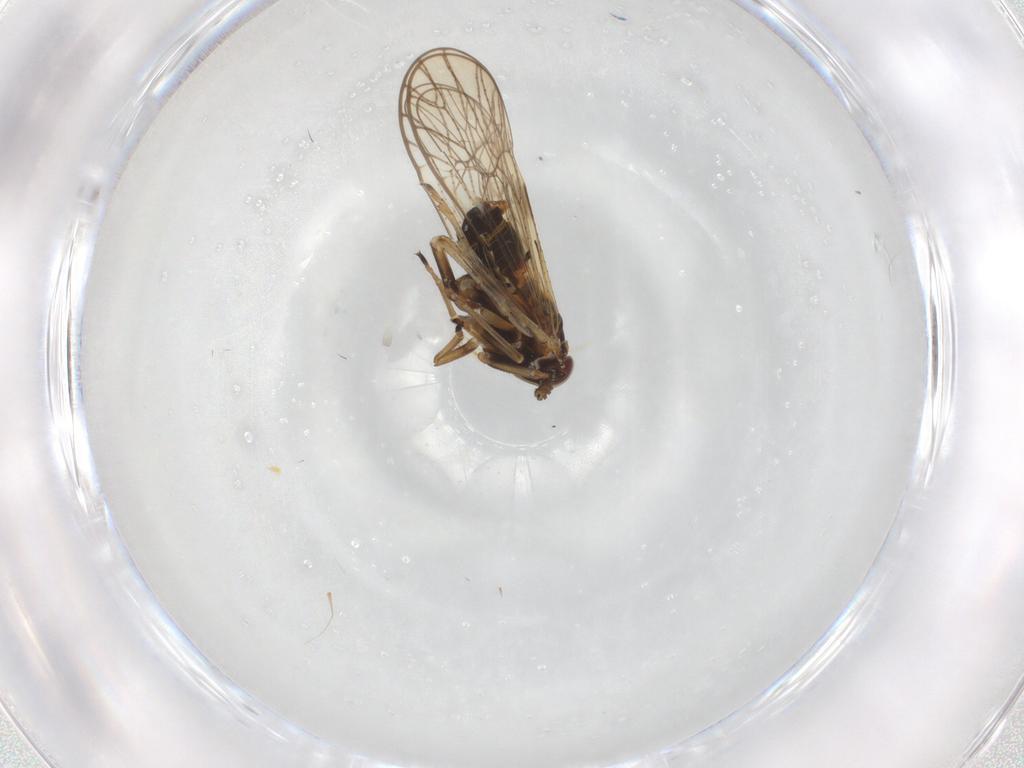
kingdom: Animalia
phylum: Arthropoda
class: Insecta
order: Hemiptera
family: Delphacidae
